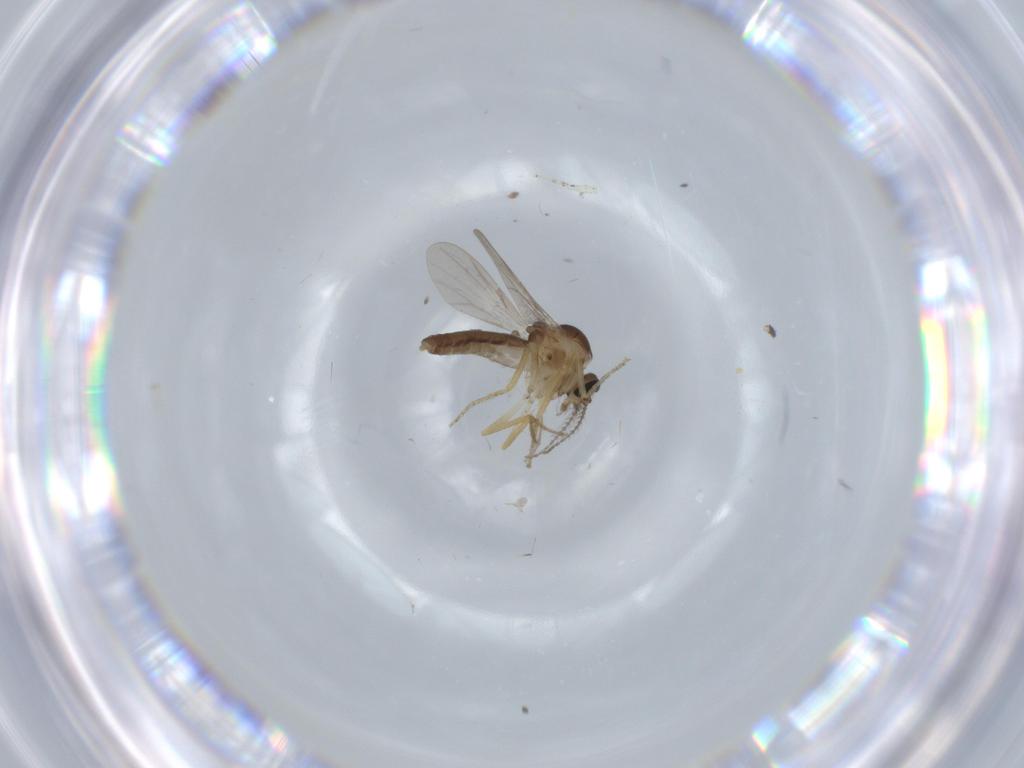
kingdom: Animalia
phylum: Arthropoda
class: Insecta
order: Diptera
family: Ceratopogonidae
